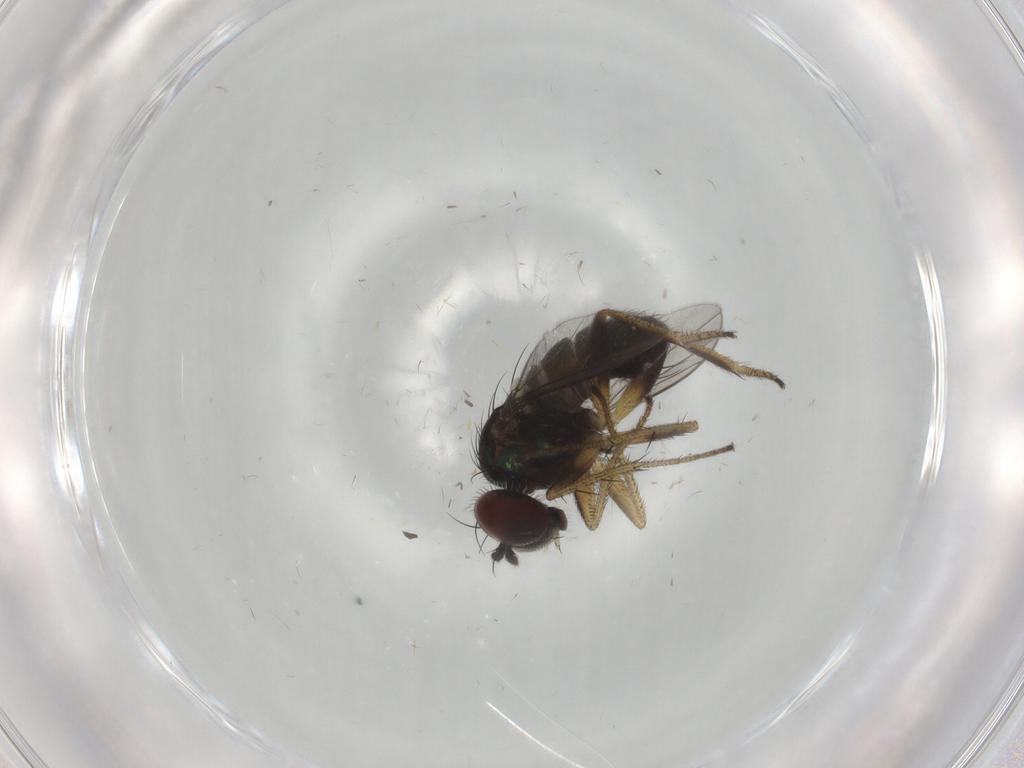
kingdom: Animalia
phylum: Arthropoda
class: Insecta
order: Diptera
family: Dolichopodidae
